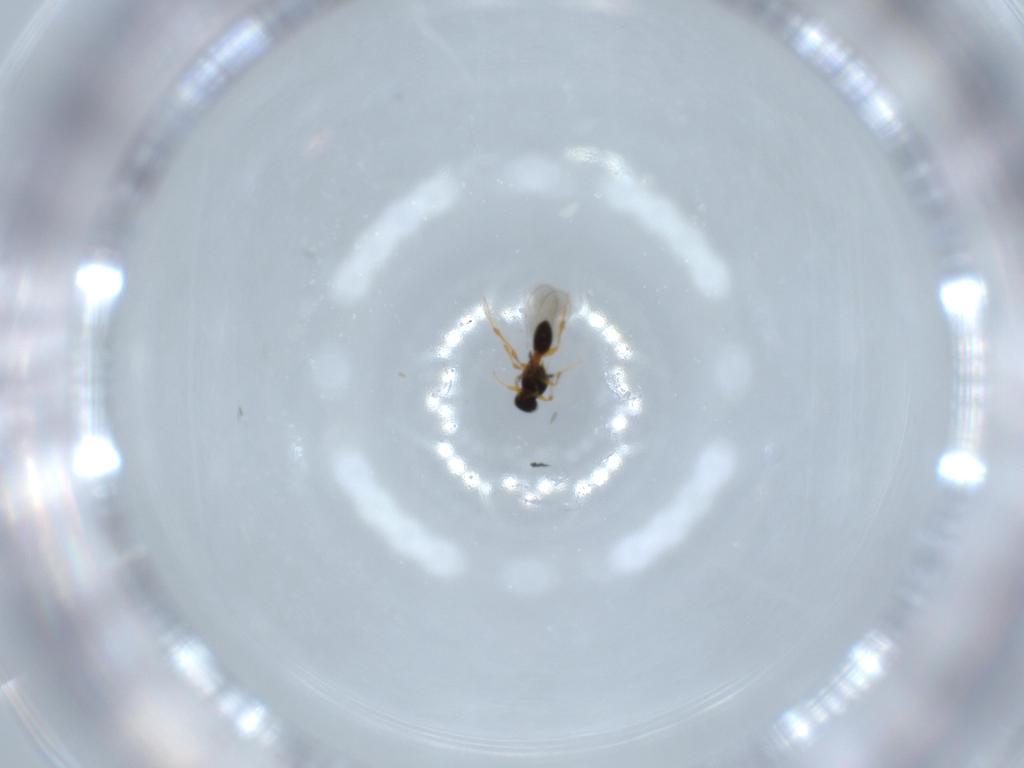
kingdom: Animalia
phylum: Arthropoda
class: Insecta
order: Hymenoptera
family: Platygastridae
